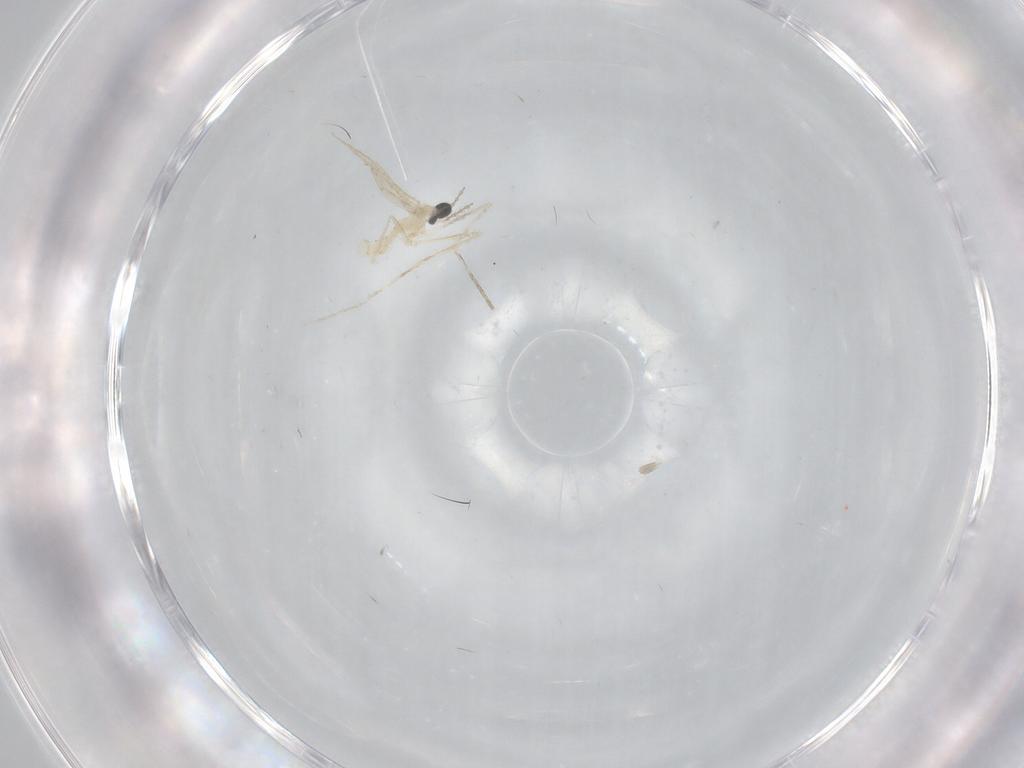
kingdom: Animalia
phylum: Arthropoda
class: Insecta
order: Diptera
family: Cecidomyiidae
